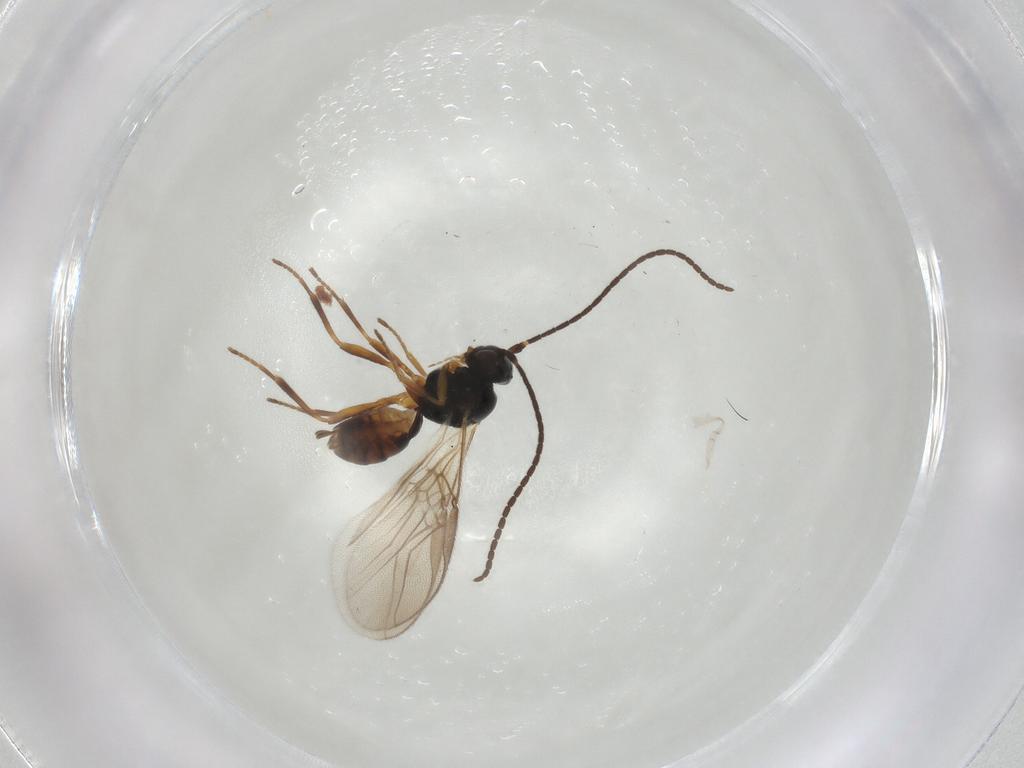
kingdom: Animalia
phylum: Arthropoda
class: Insecta
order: Hymenoptera
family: Braconidae
